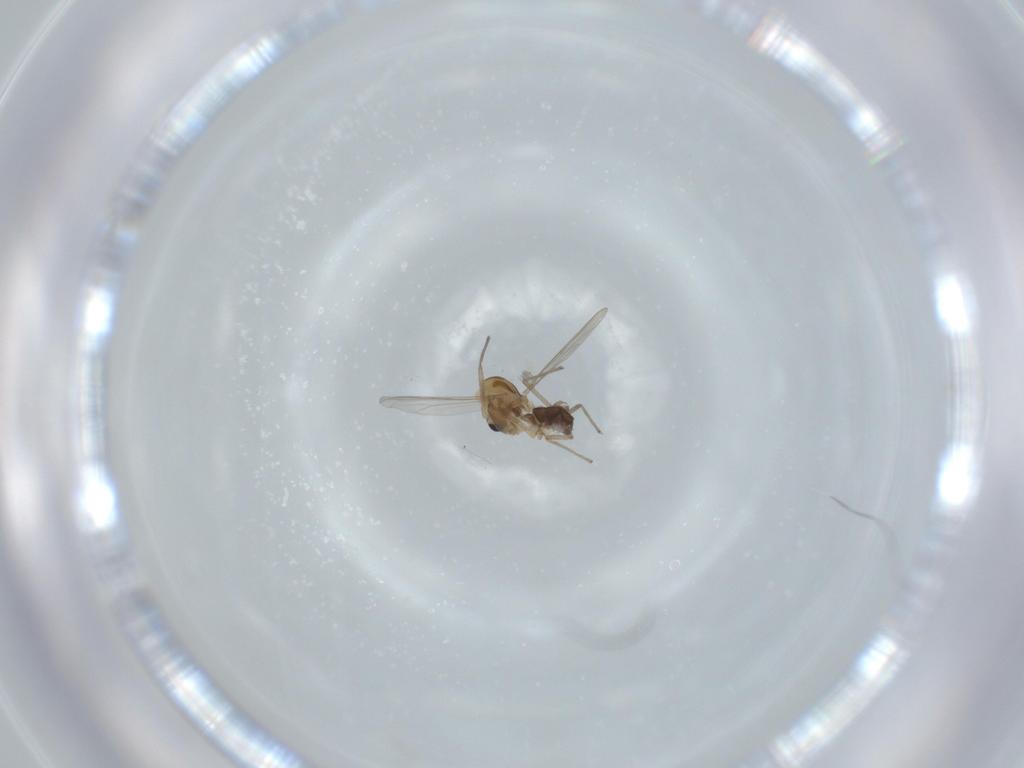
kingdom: Animalia
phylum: Arthropoda
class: Insecta
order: Diptera
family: Chironomidae
